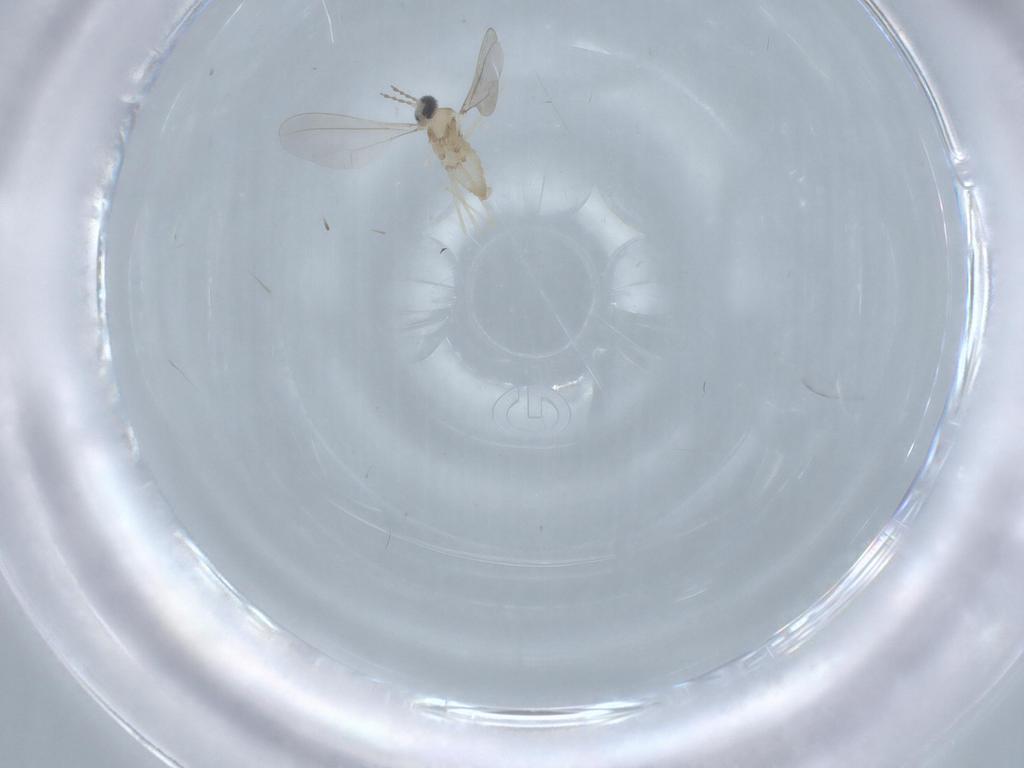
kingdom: Animalia
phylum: Arthropoda
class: Insecta
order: Diptera
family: Cecidomyiidae
